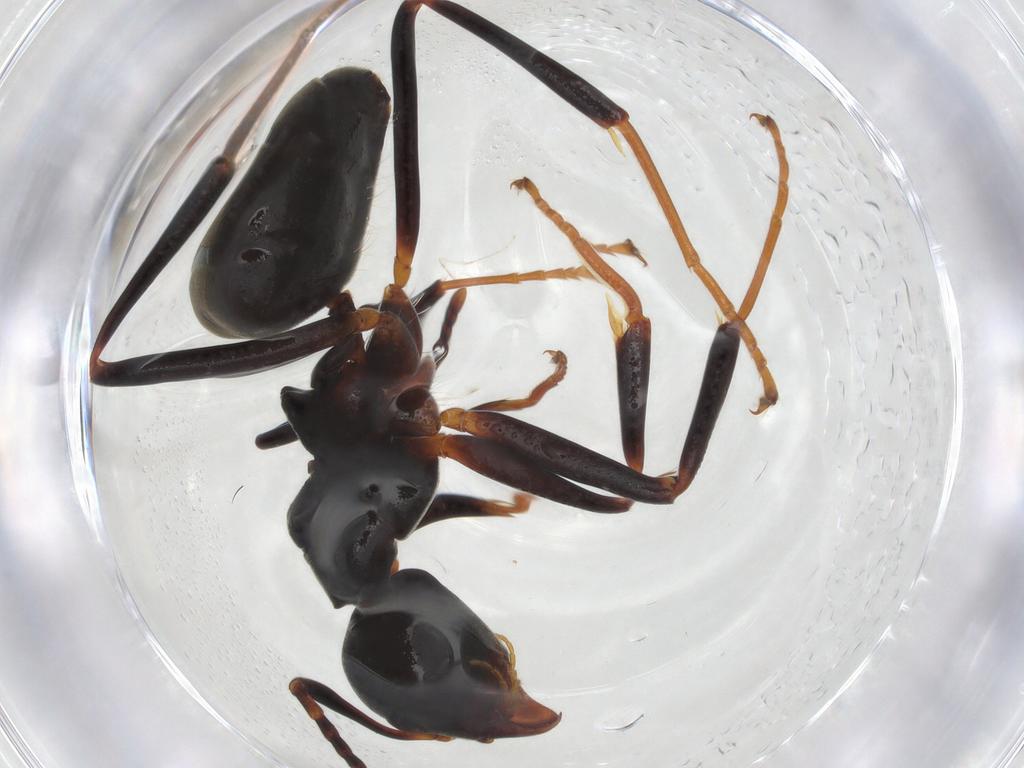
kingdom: Animalia
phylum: Arthropoda
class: Insecta
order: Hymenoptera
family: Formicidae
